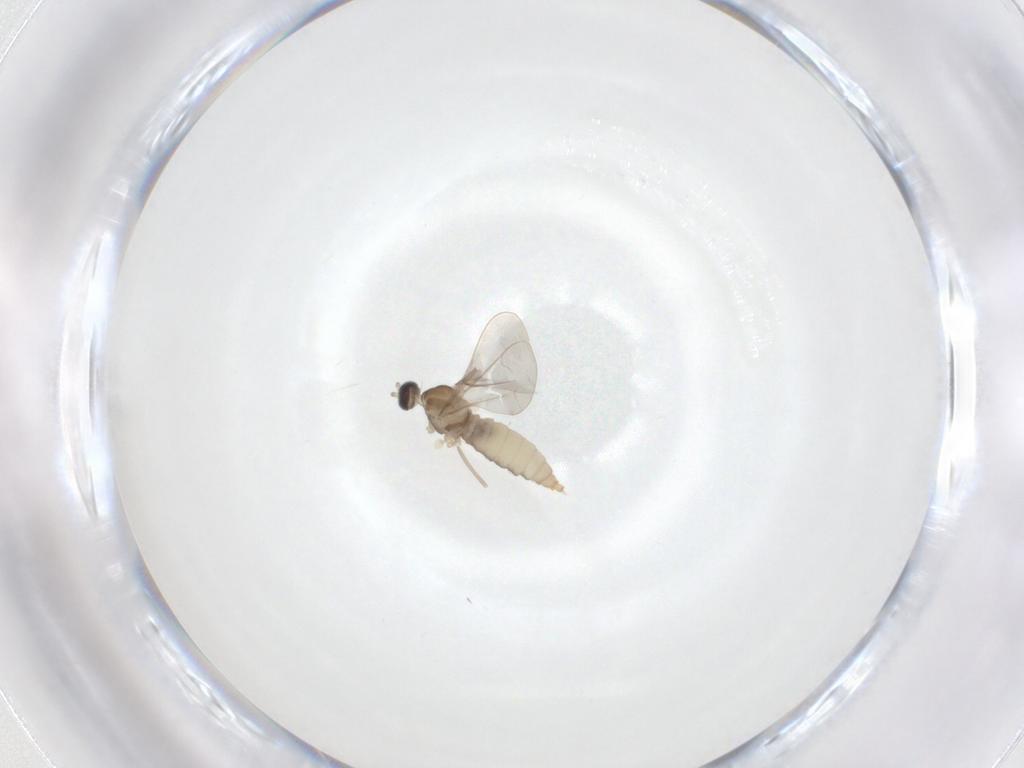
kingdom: Animalia
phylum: Arthropoda
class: Insecta
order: Diptera
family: Cecidomyiidae
